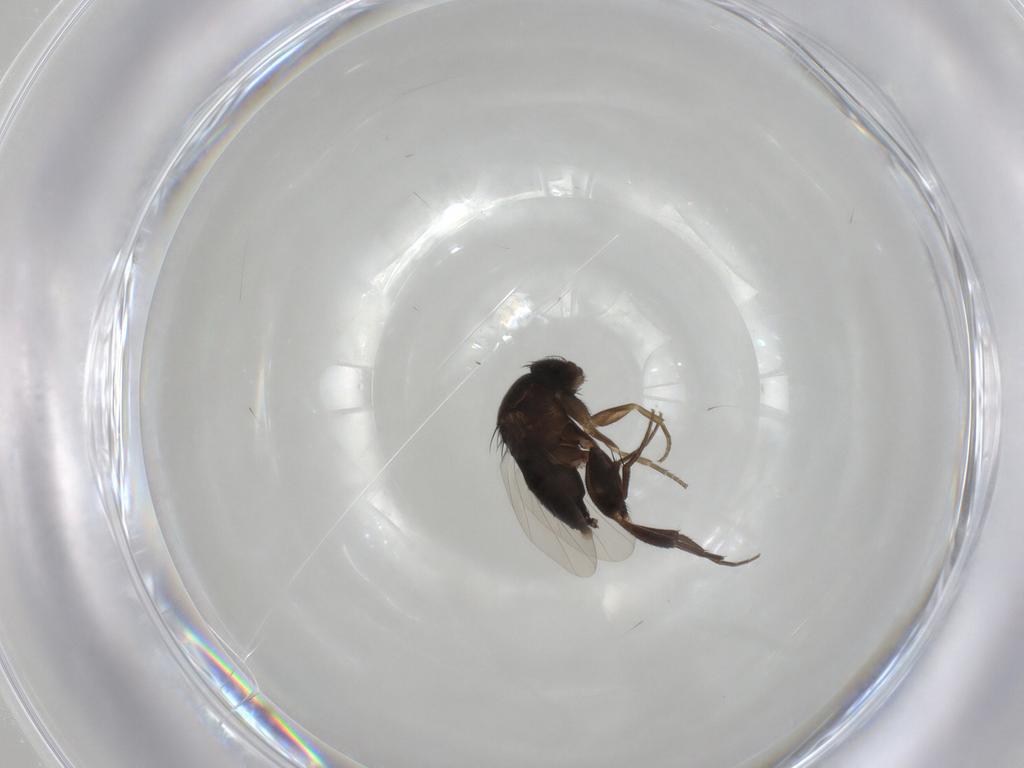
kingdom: Animalia
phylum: Arthropoda
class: Insecta
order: Diptera
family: Phoridae
